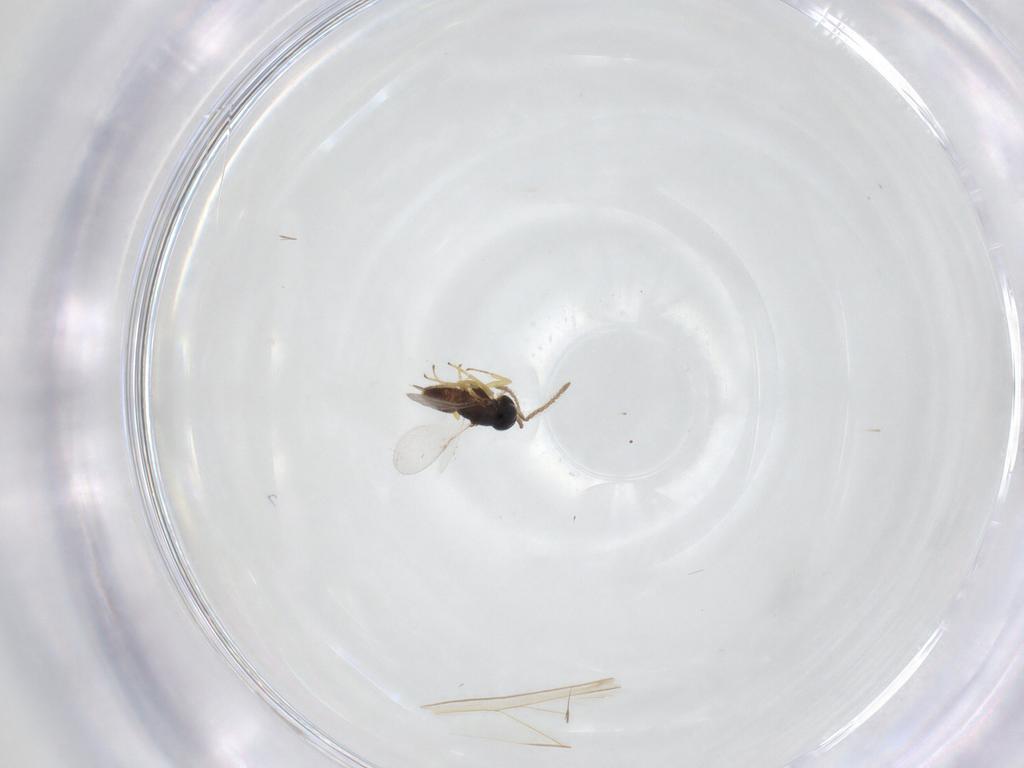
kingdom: Animalia
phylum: Arthropoda
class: Insecta
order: Hymenoptera
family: Encyrtidae
